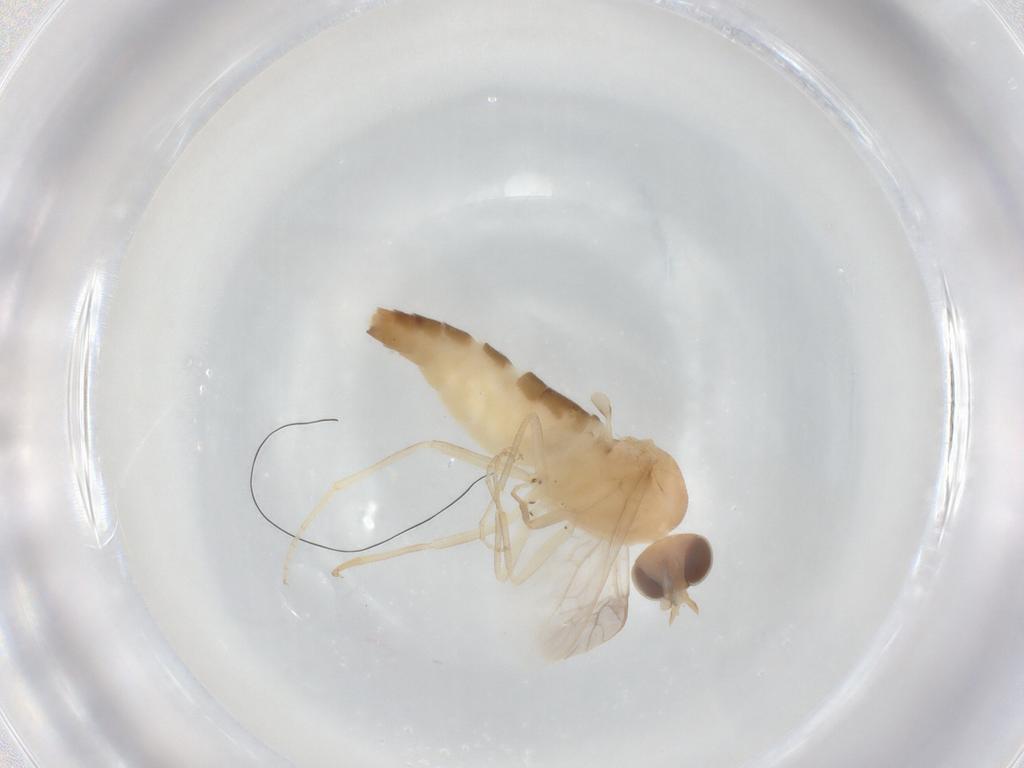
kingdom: Animalia
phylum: Arthropoda
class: Insecta
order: Diptera
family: Scenopinidae
